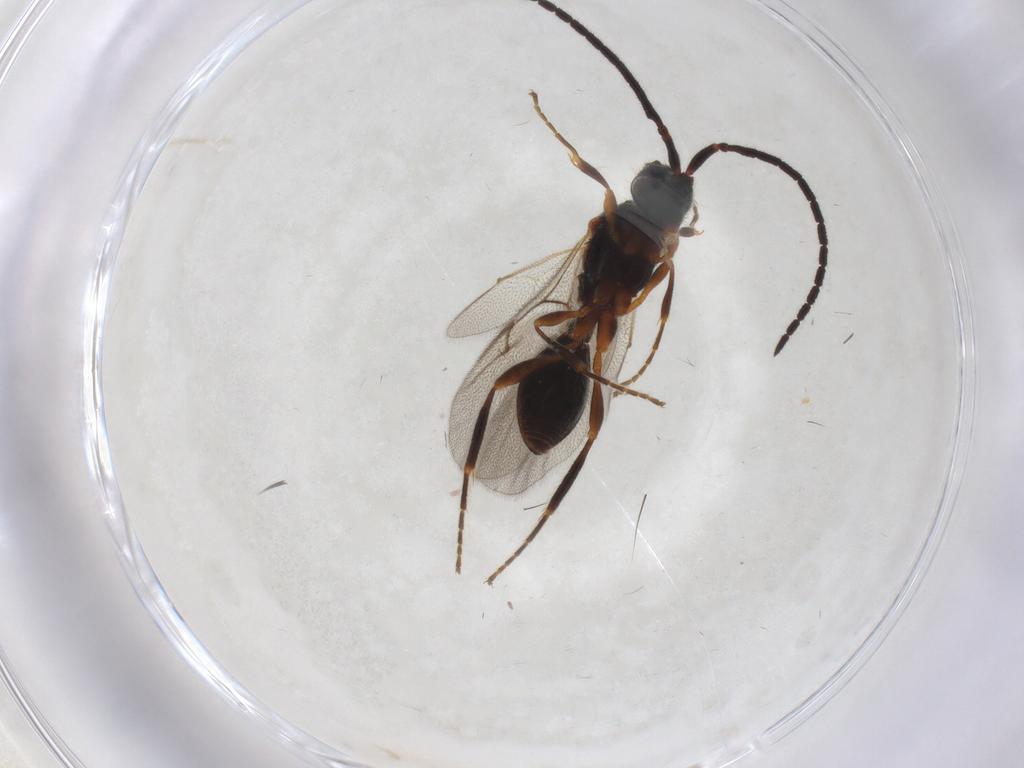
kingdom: Animalia
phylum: Arthropoda
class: Insecta
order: Hymenoptera
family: Diapriidae
